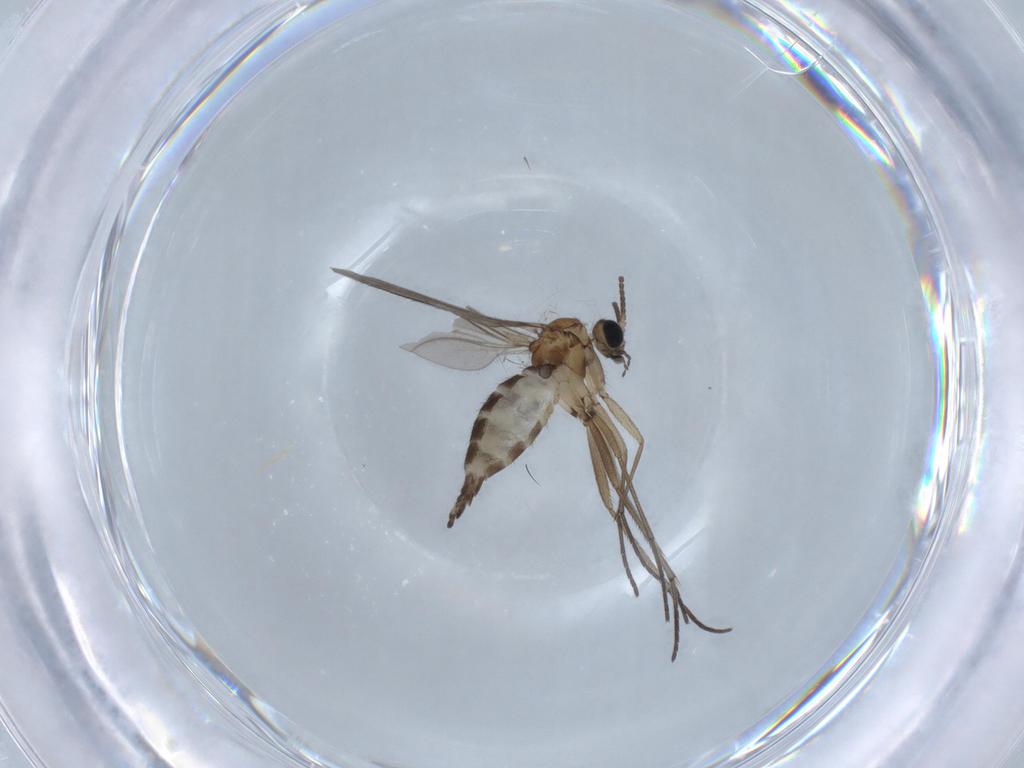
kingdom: Animalia
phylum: Arthropoda
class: Insecta
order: Diptera
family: Sciaridae
